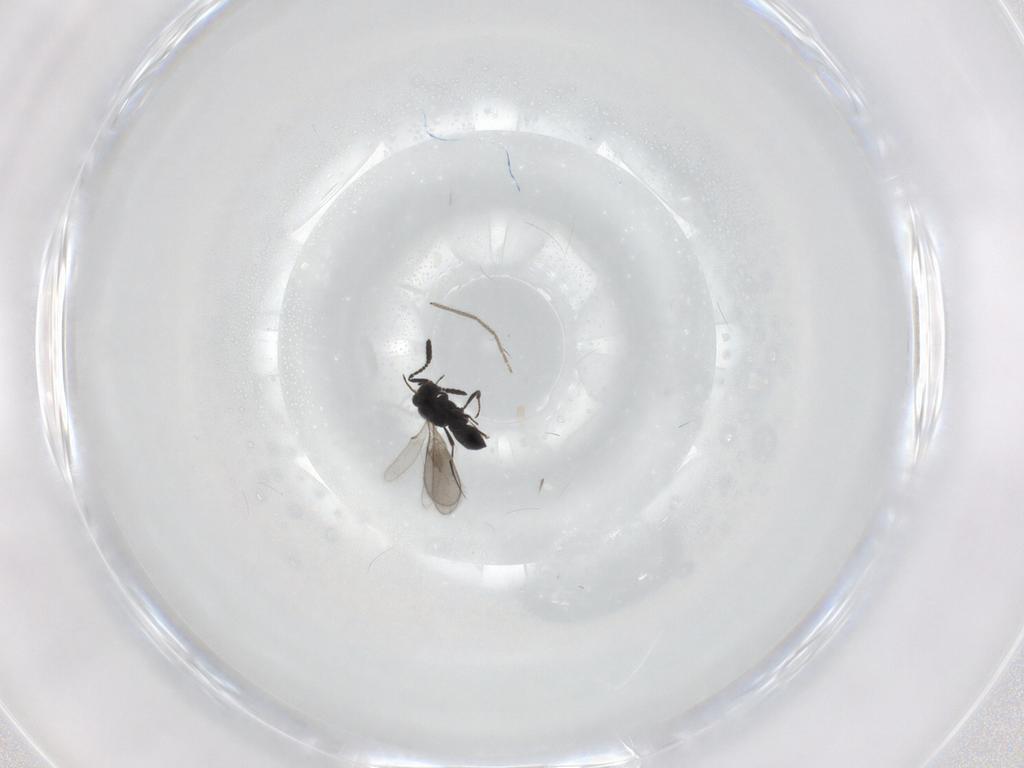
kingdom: Animalia
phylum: Arthropoda
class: Insecta
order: Hymenoptera
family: Scelionidae
